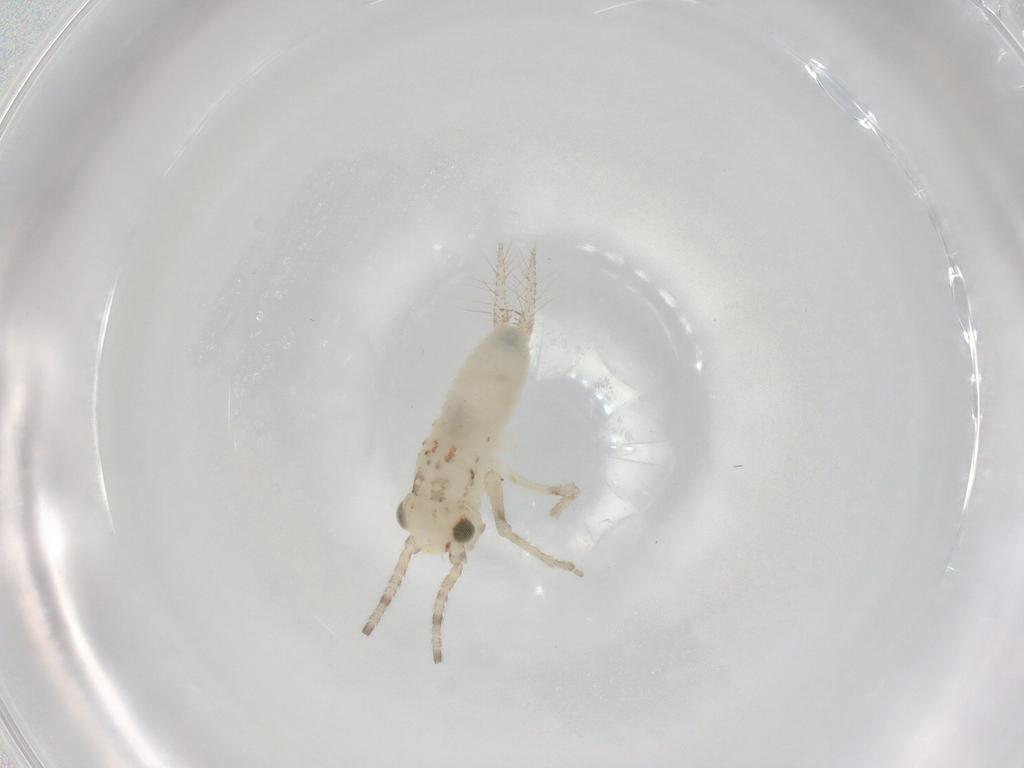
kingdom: Animalia
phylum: Arthropoda
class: Insecta
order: Orthoptera
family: Trigonidiidae
